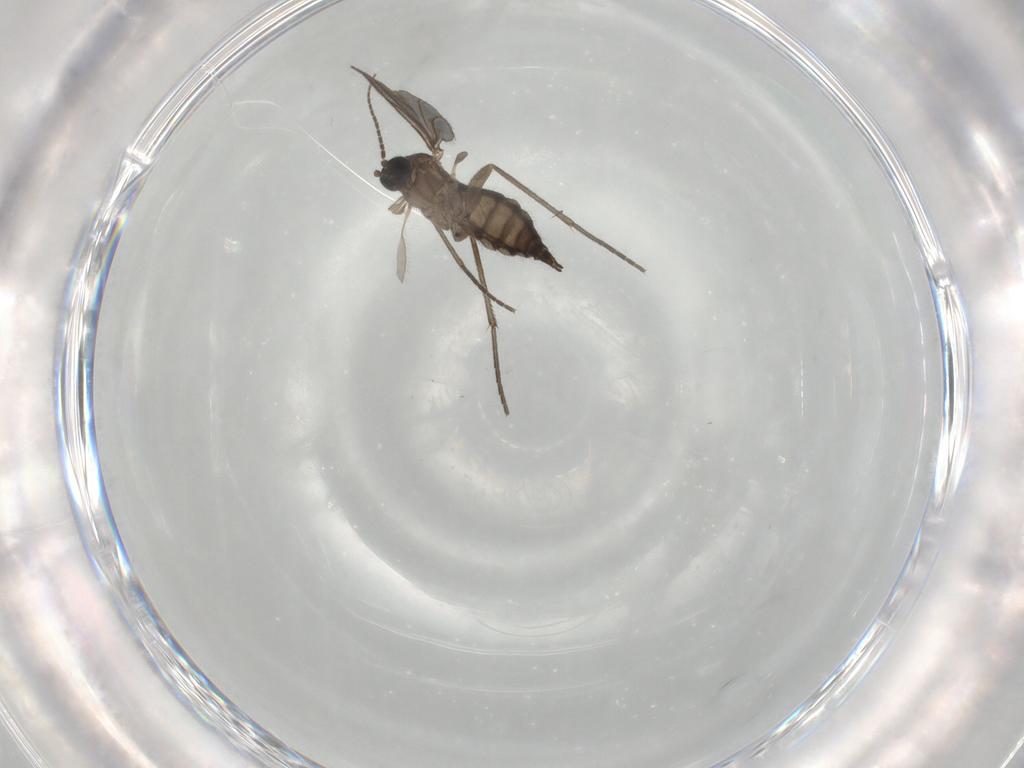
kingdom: Animalia
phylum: Arthropoda
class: Insecta
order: Diptera
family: Sciaridae
